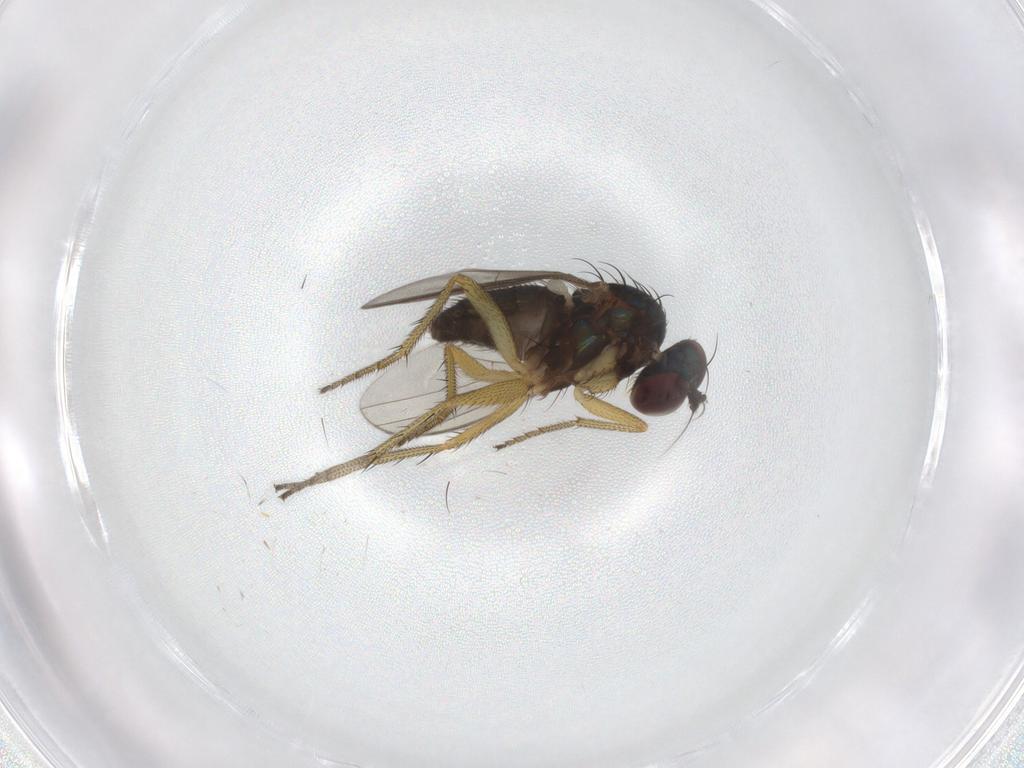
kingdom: Animalia
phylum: Arthropoda
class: Insecta
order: Diptera
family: Dolichopodidae
